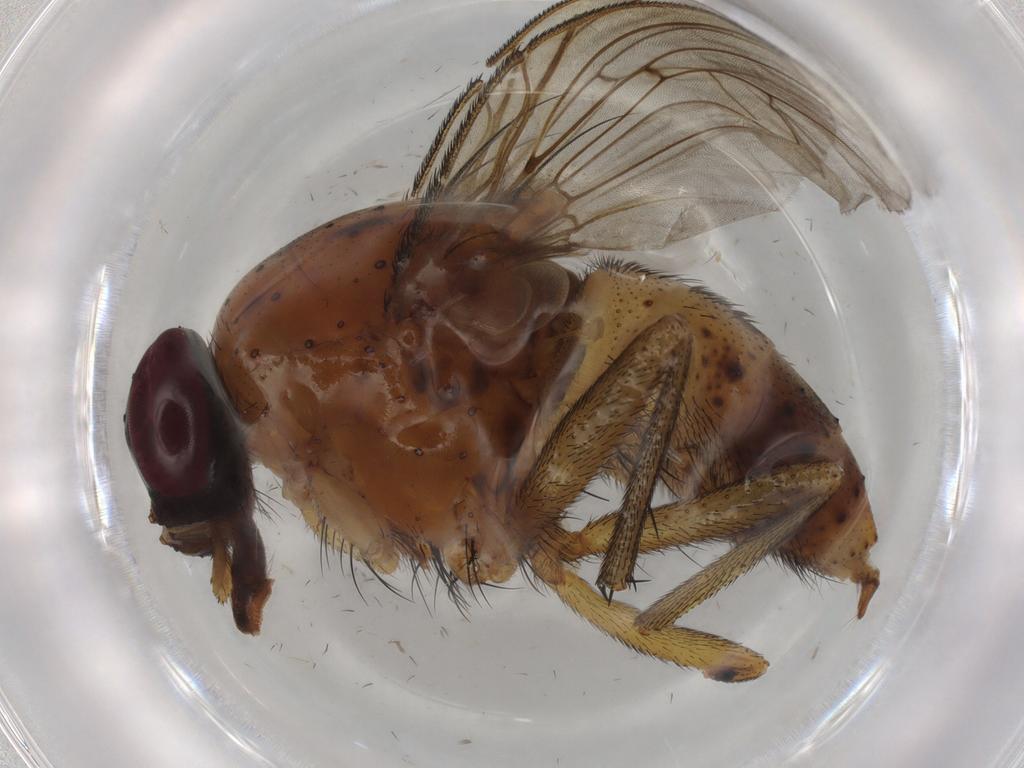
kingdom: Animalia
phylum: Arthropoda
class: Insecta
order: Diptera
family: Muscidae
